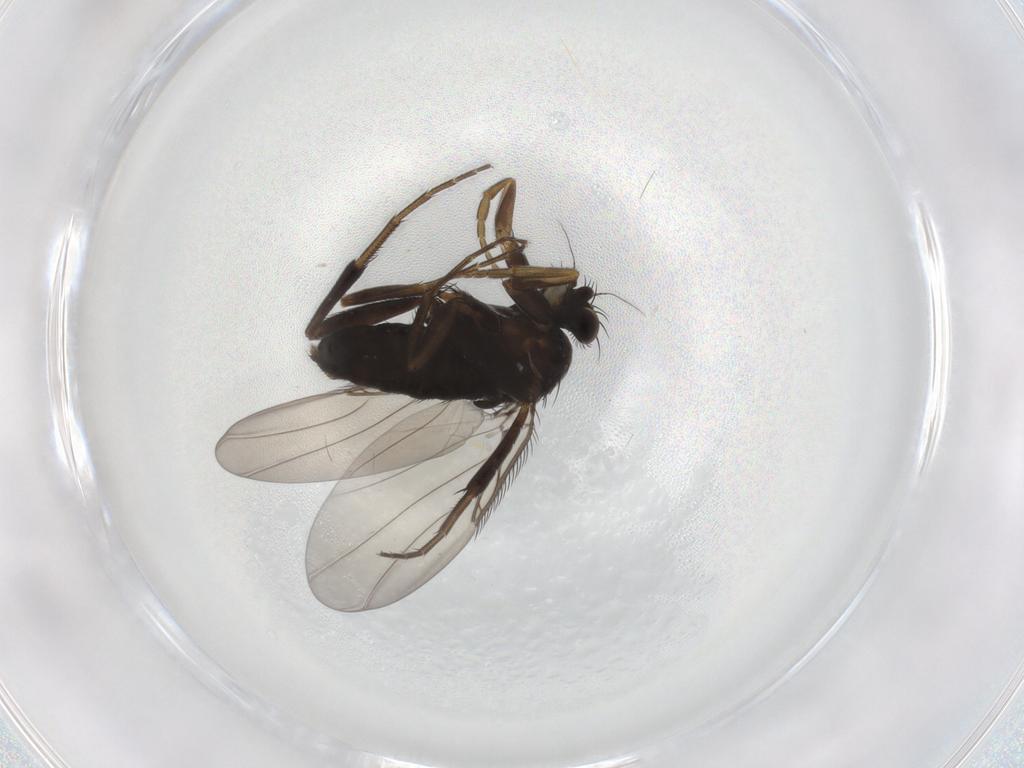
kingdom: Animalia
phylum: Arthropoda
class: Insecta
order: Diptera
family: Phoridae
